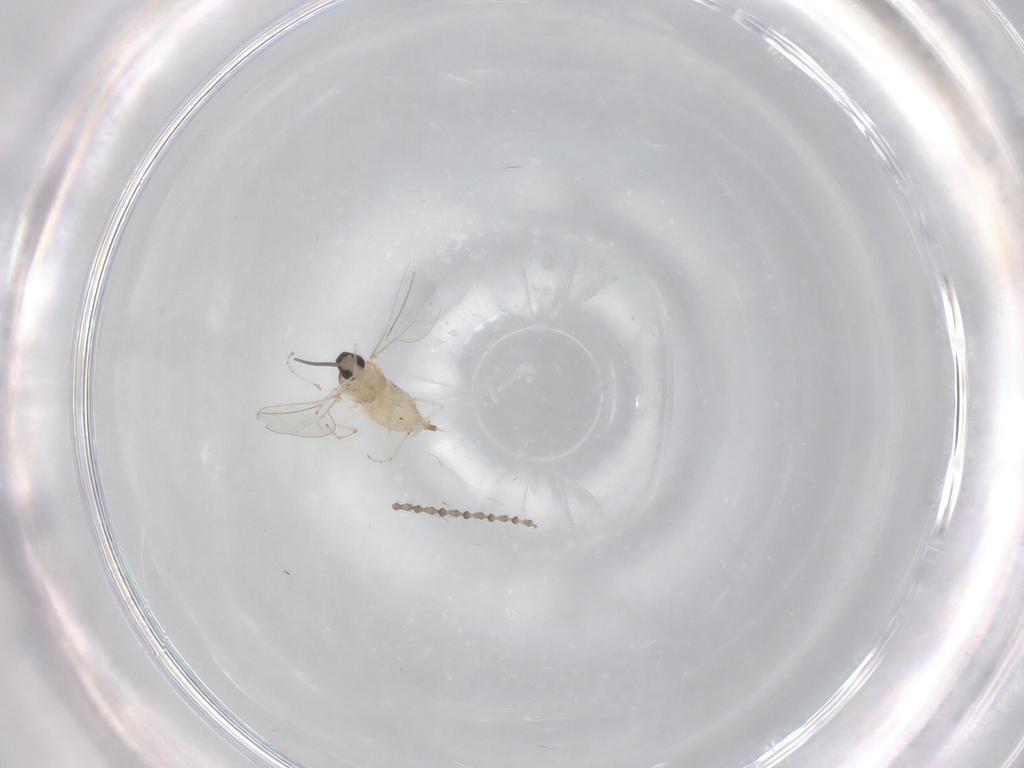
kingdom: Animalia
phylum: Arthropoda
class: Insecta
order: Diptera
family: Cecidomyiidae
